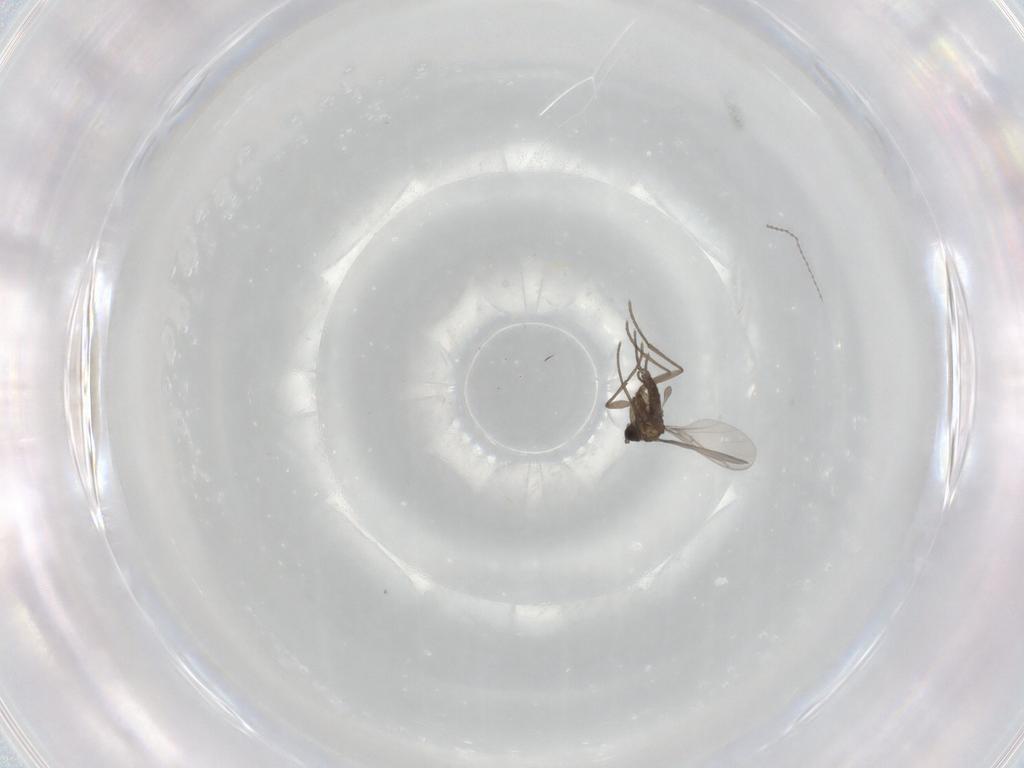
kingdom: Animalia
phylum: Arthropoda
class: Insecta
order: Diptera
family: Sciaridae
